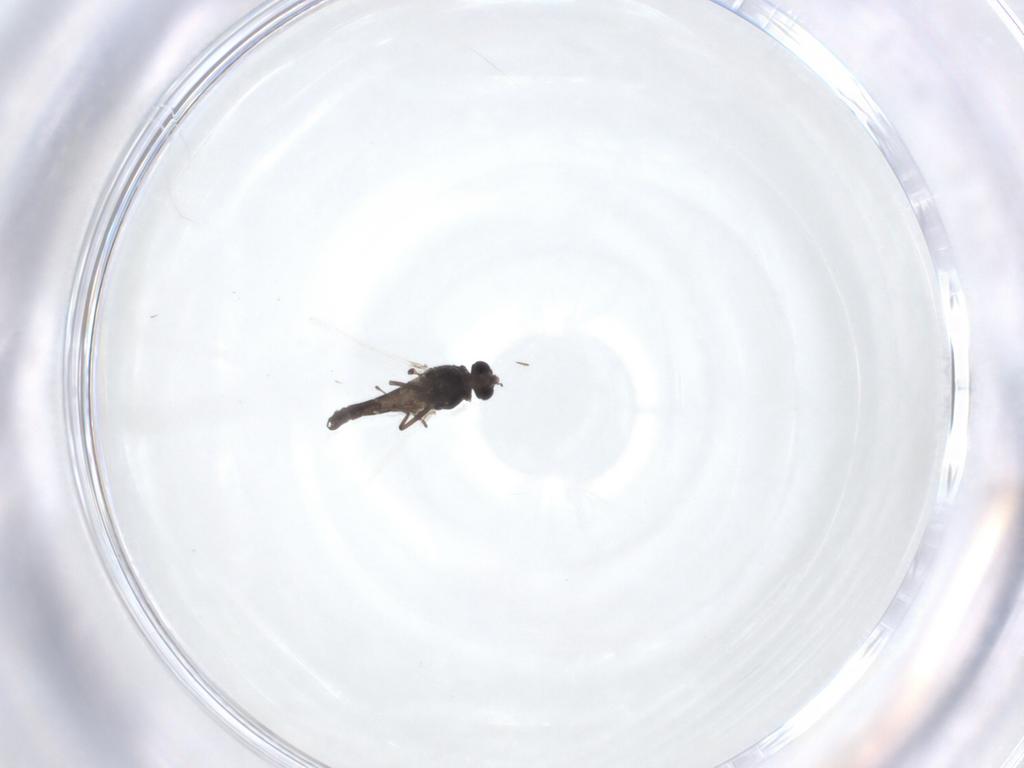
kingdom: Animalia
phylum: Arthropoda
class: Insecta
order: Diptera
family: Chironomidae
